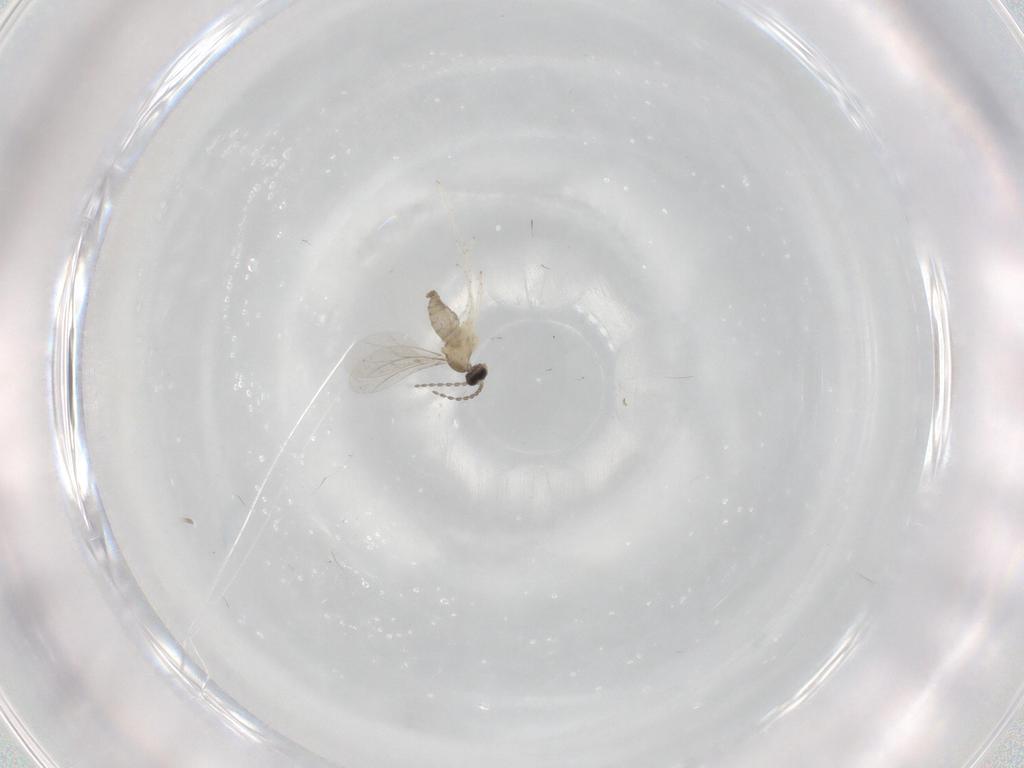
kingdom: Animalia
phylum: Arthropoda
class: Insecta
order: Diptera
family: Cecidomyiidae
